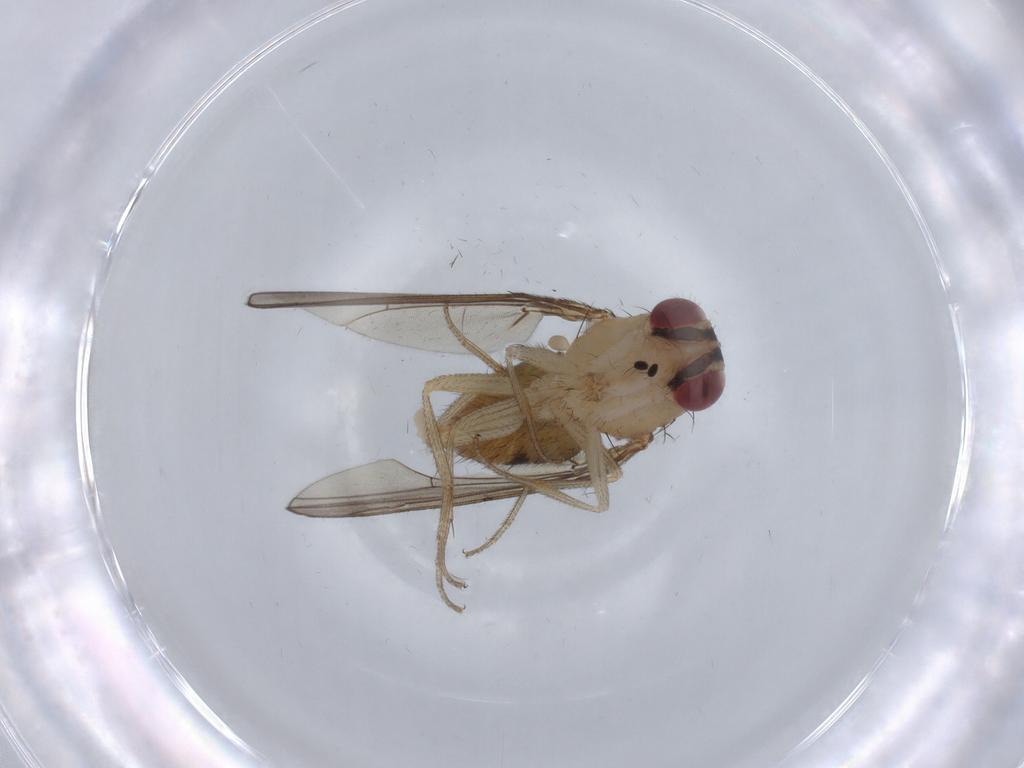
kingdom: Animalia
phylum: Arthropoda
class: Insecta
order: Diptera
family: Drosophilidae
